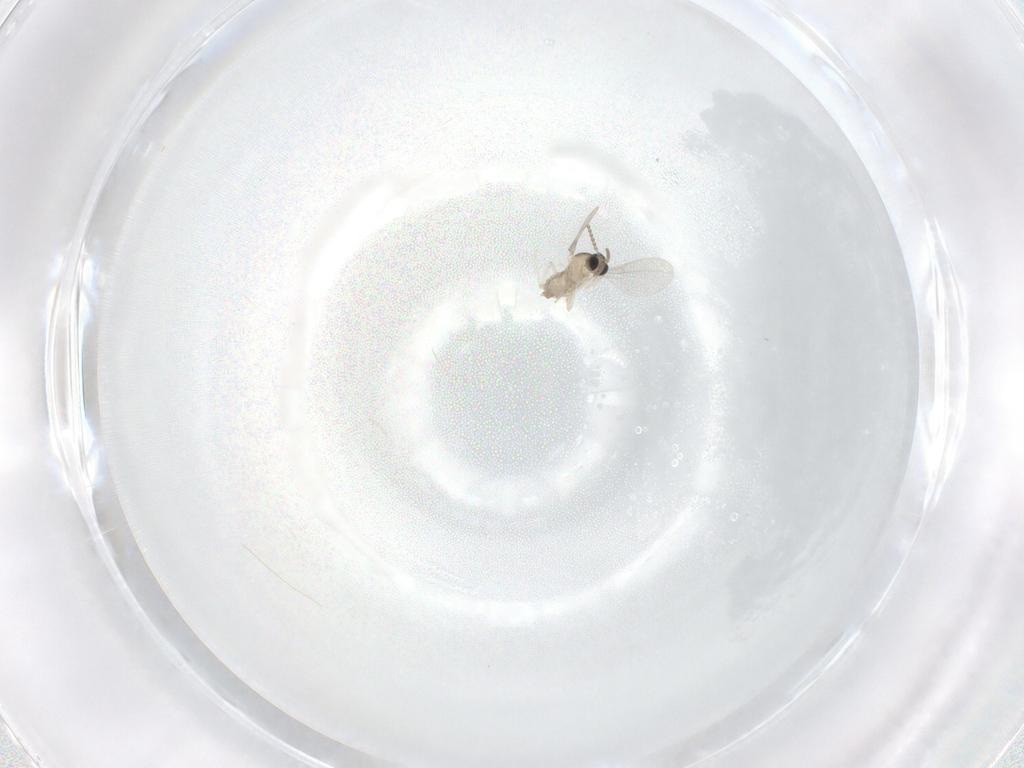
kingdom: Animalia
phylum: Arthropoda
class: Insecta
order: Diptera
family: Cecidomyiidae
